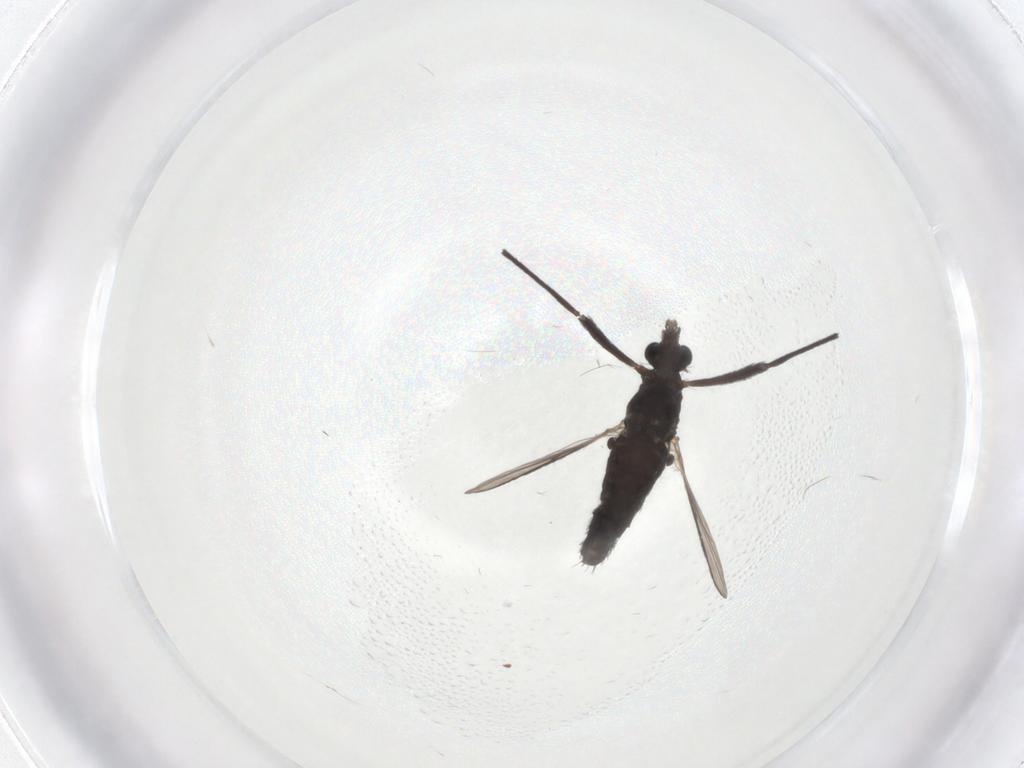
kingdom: Animalia
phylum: Arthropoda
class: Insecta
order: Diptera
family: Chironomidae
